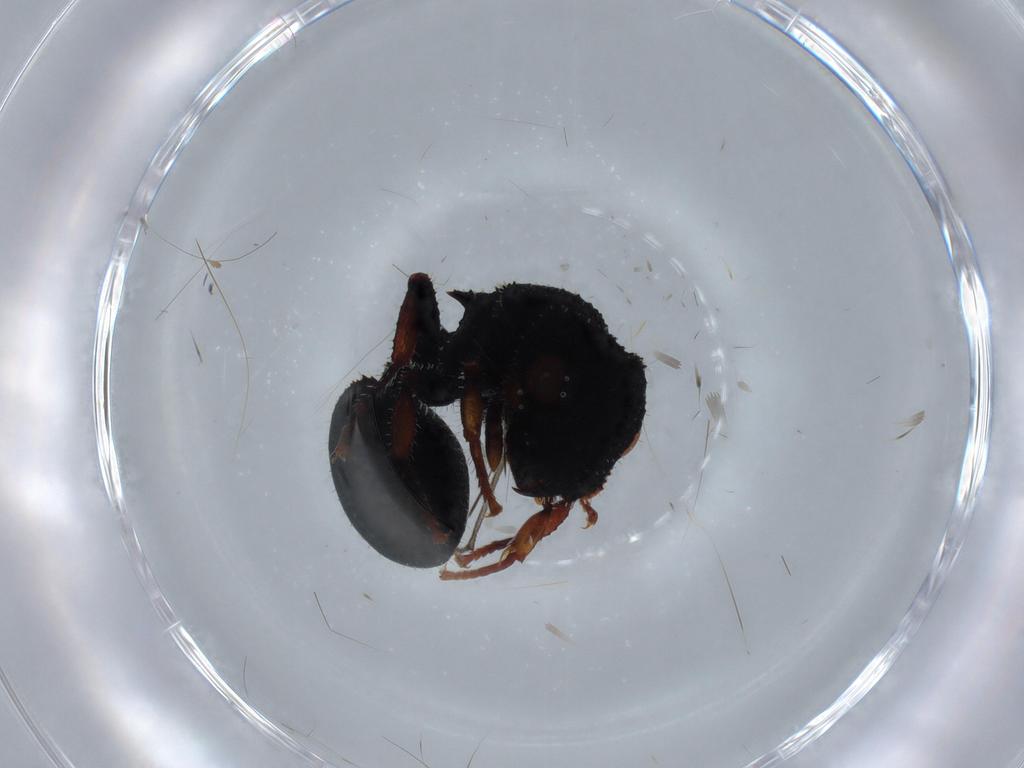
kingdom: Animalia
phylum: Arthropoda
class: Insecta
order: Hymenoptera
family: Formicidae
